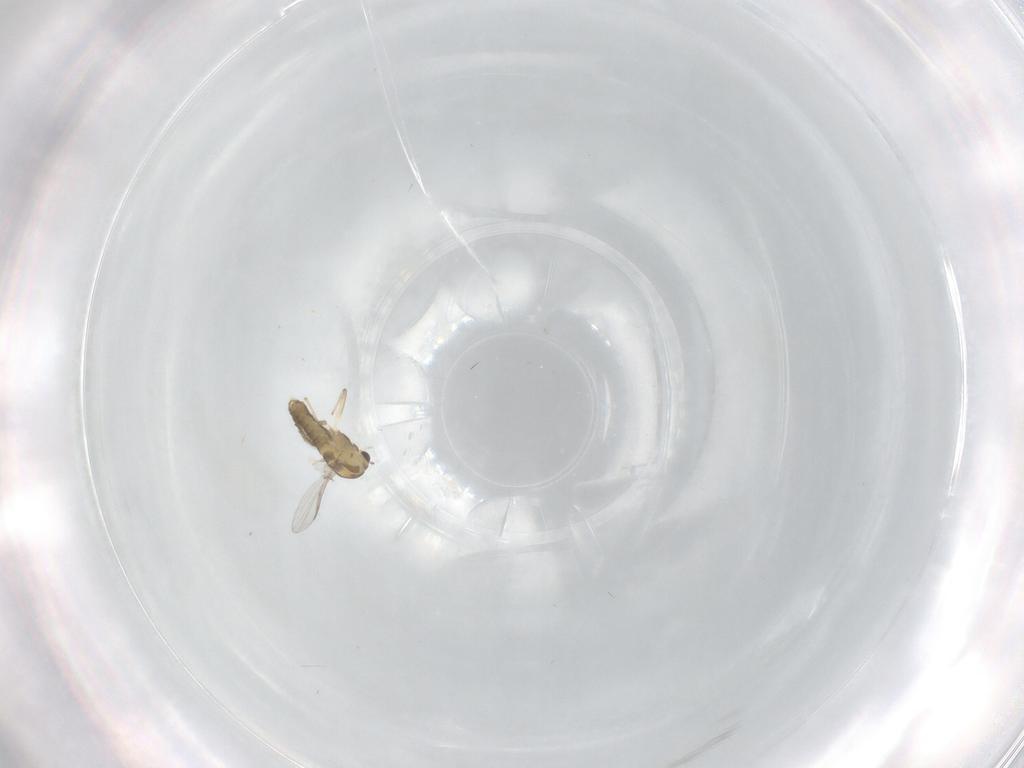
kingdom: Animalia
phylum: Arthropoda
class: Insecta
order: Diptera
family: Chironomidae
